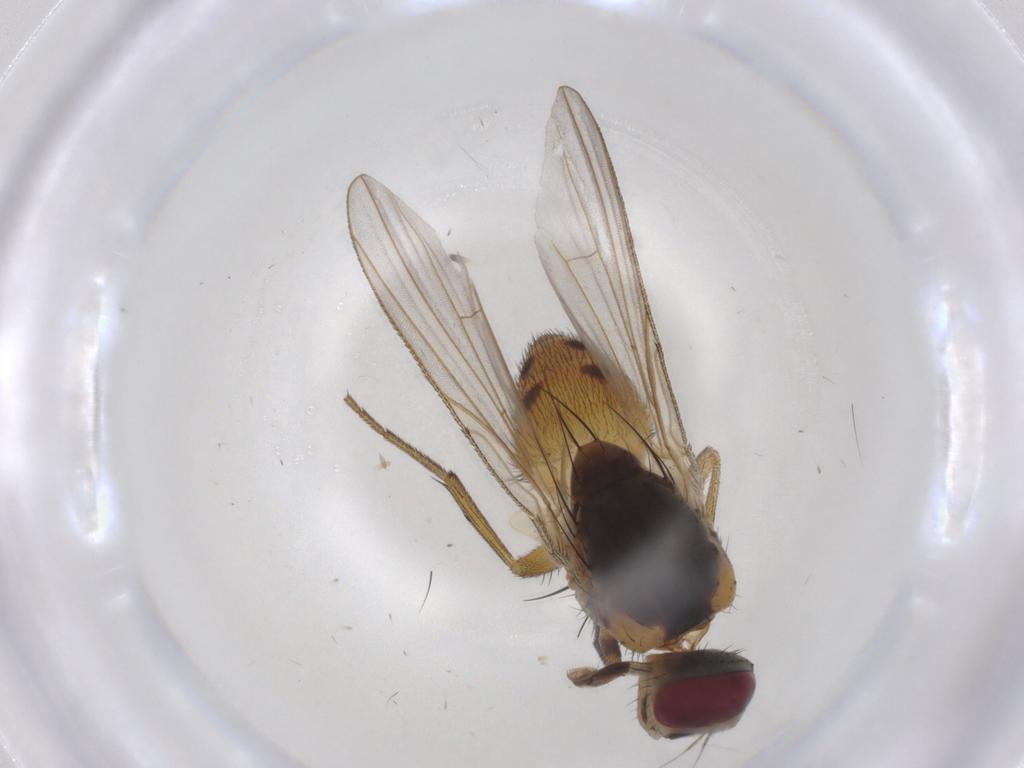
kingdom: Animalia
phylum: Arthropoda
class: Insecta
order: Diptera
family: Muscidae
